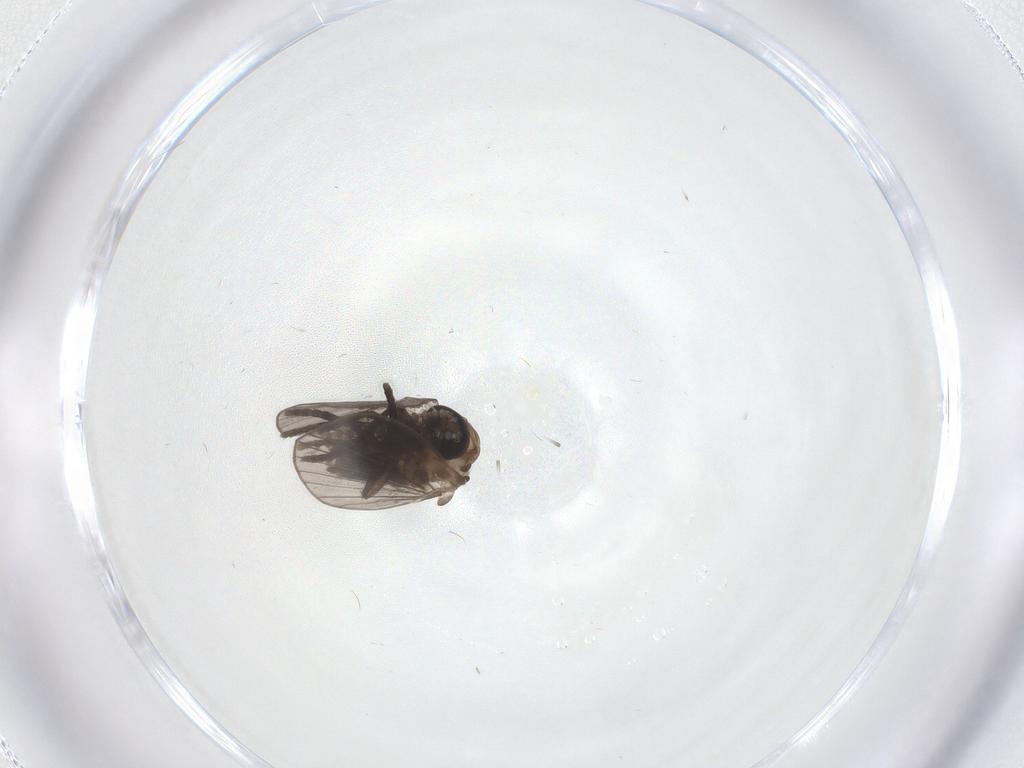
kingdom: Animalia
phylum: Arthropoda
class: Insecta
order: Diptera
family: Psychodidae
